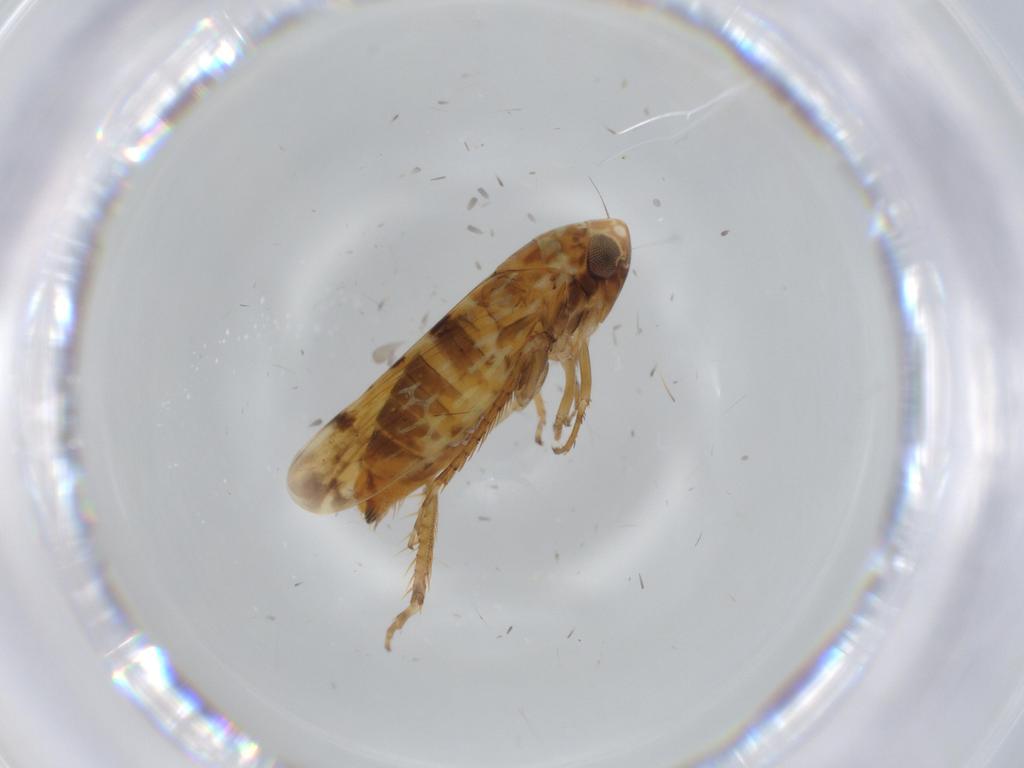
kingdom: Animalia
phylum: Arthropoda
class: Insecta
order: Hemiptera
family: Cicadellidae
